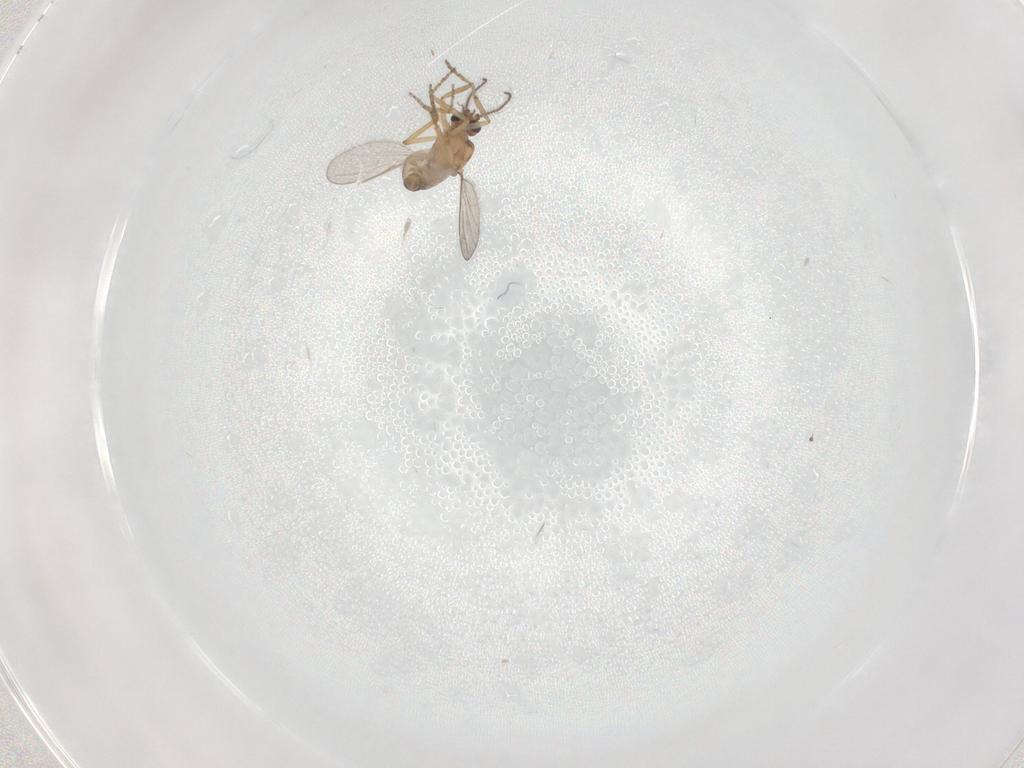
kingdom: Animalia
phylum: Arthropoda
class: Insecta
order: Diptera
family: Psychodidae
